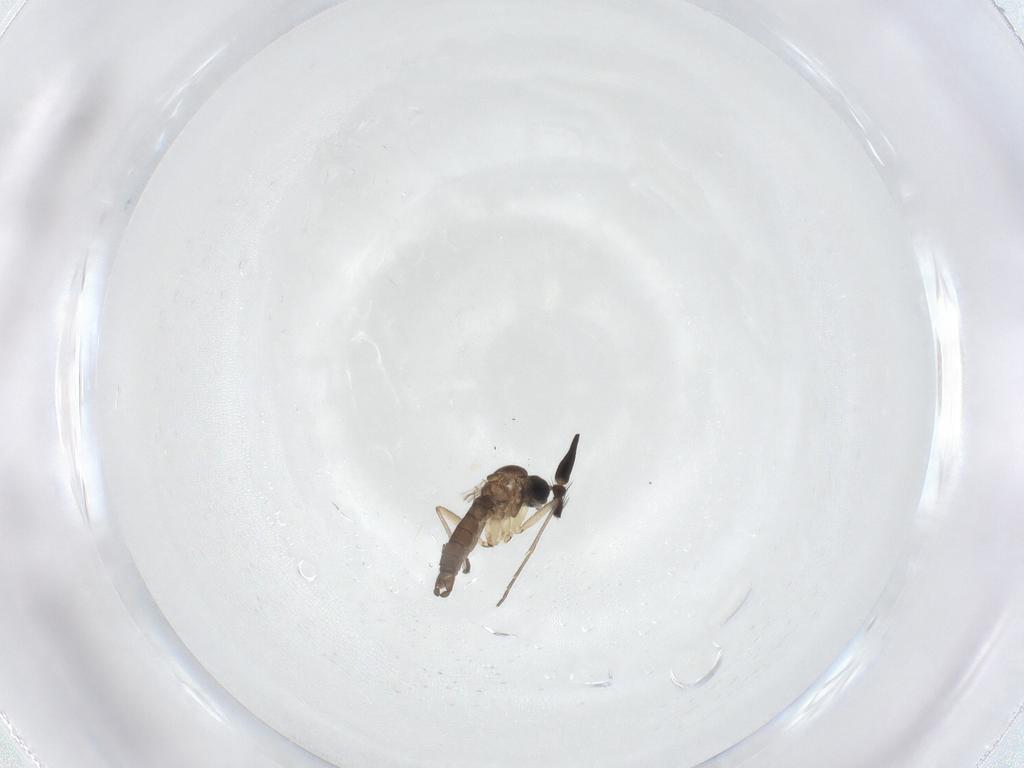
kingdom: Animalia
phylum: Arthropoda
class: Insecta
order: Diptera
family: Sciaridae
